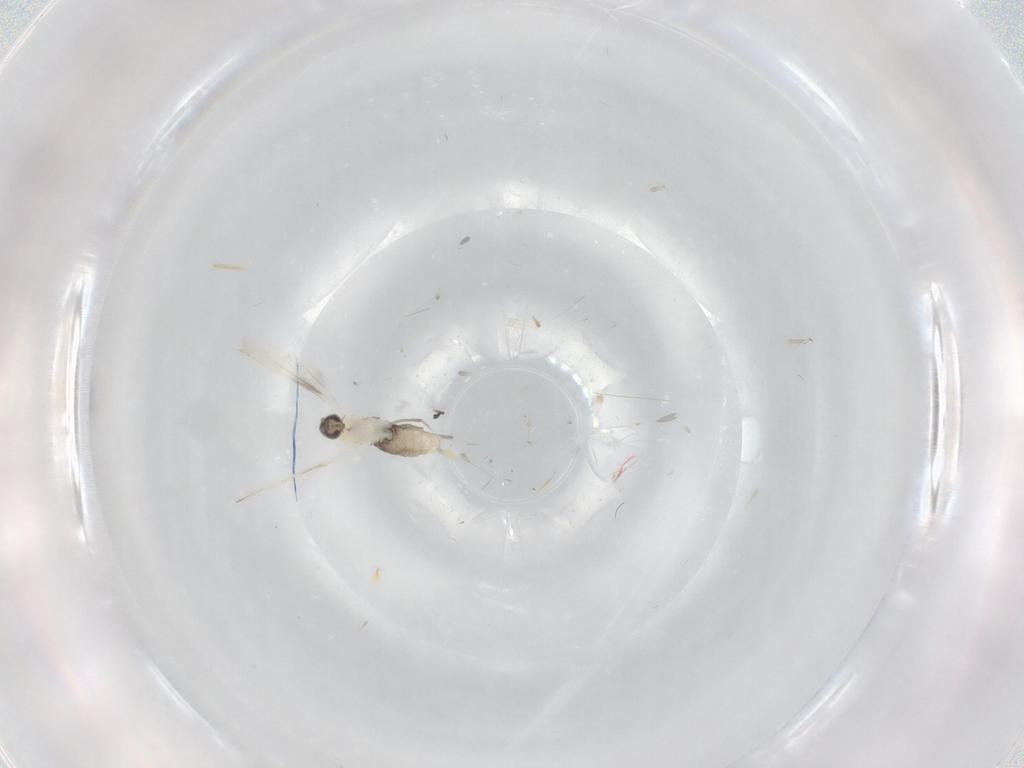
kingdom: Animalia
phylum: Arthropoda
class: Insecta
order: Diptera
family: Cecidomyiidae
